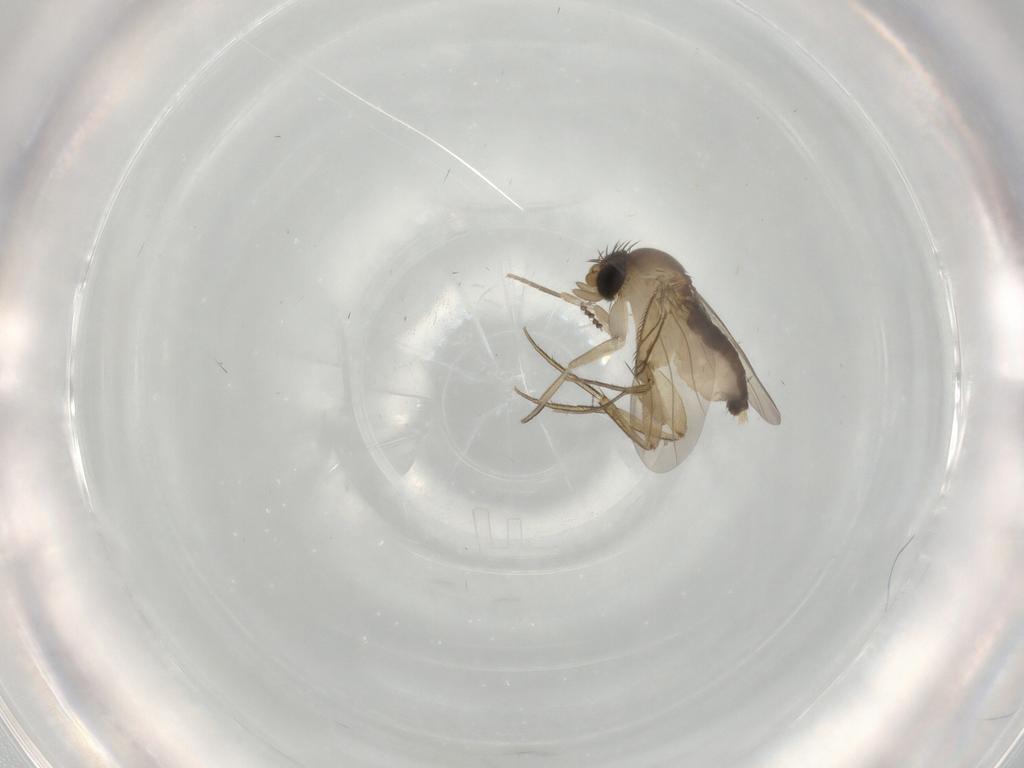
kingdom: Animalia
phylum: Arthropoda
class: Insecta
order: Diptera
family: Phoridae
